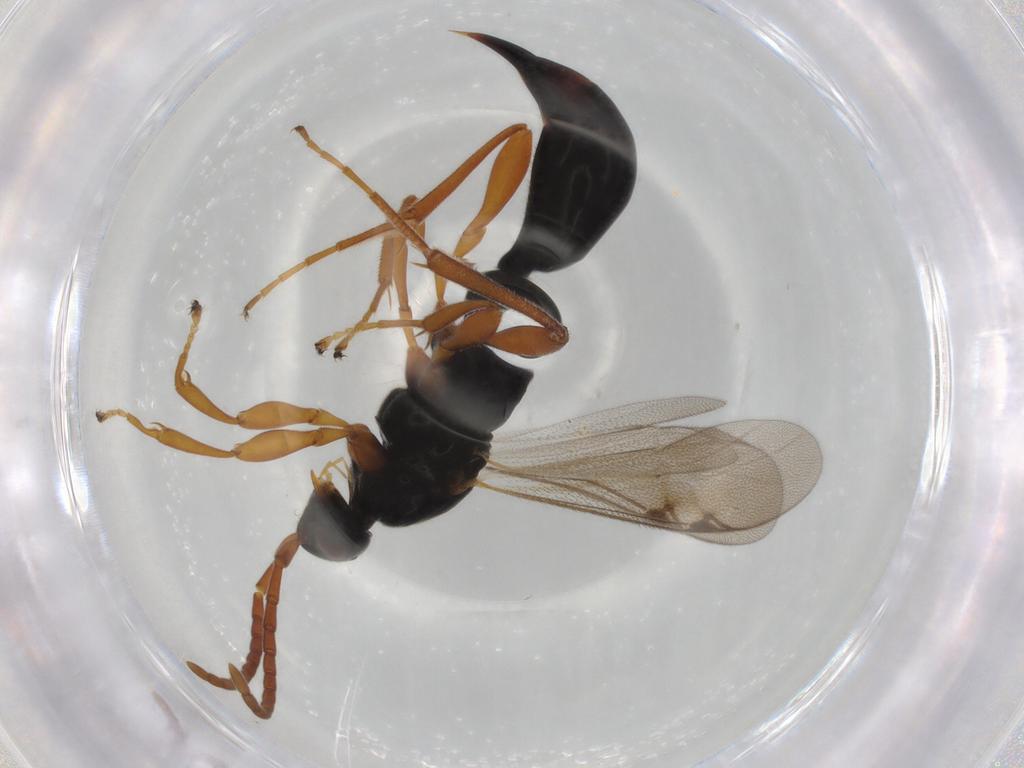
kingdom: Animalia
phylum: Arthropoda
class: Insecta
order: Hymenoptera
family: Proctotrupidae
